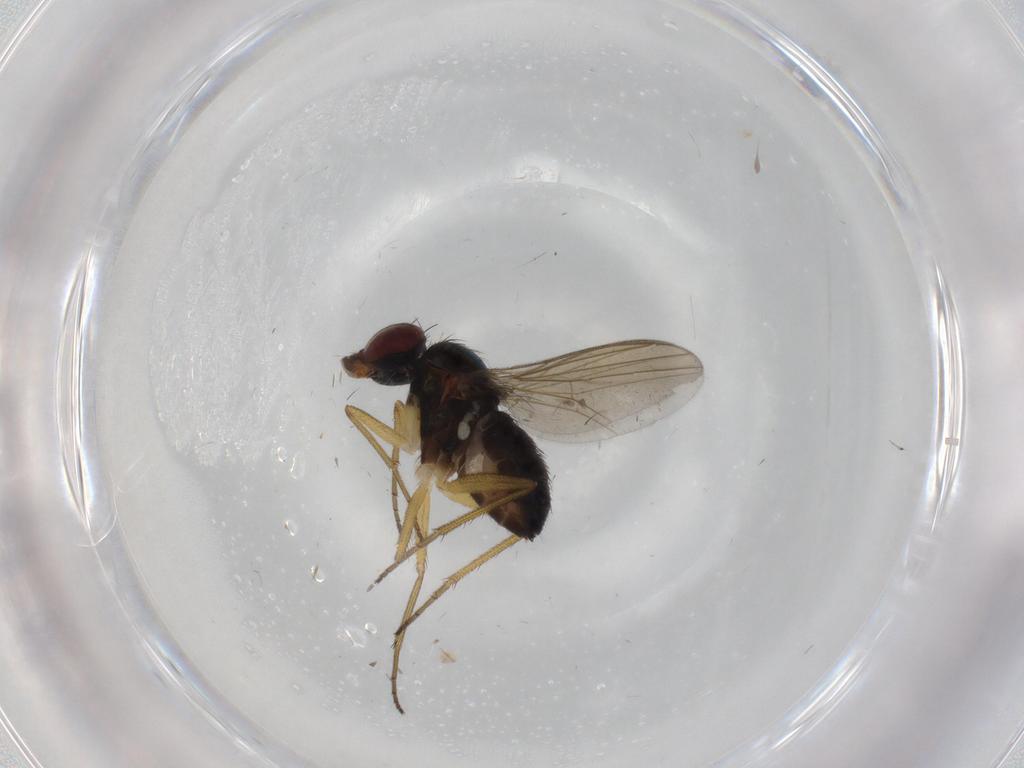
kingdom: Animalia
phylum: Arthropoda
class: Insecta
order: Diptera
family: Dolichopodidae
